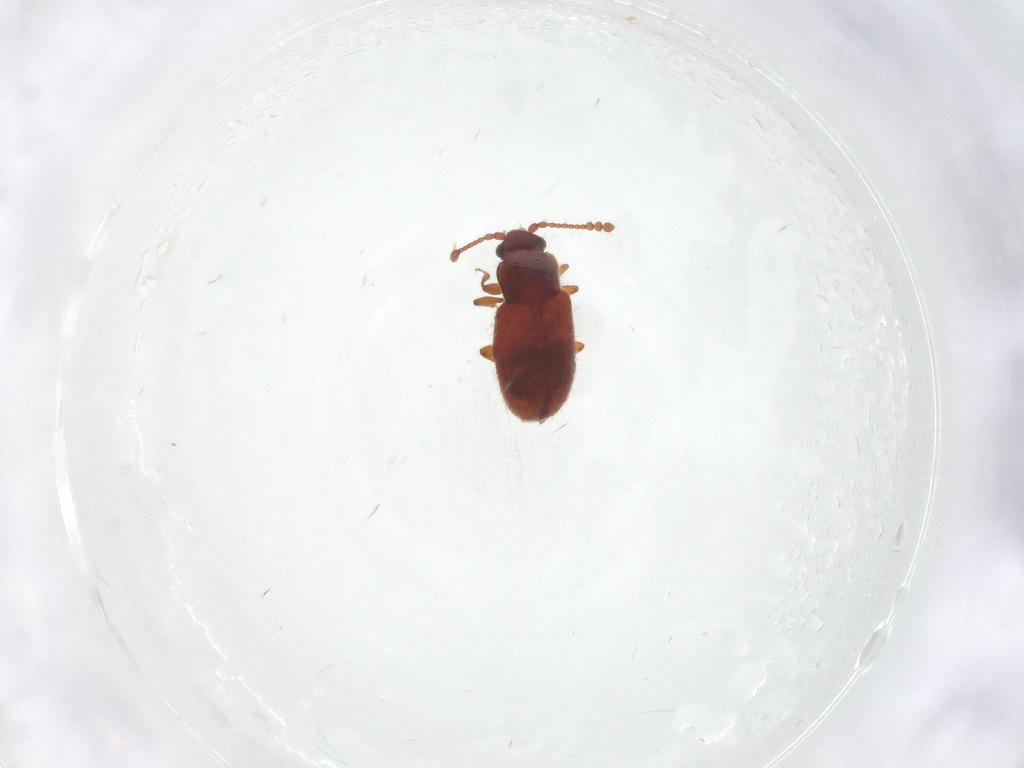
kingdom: Animalia
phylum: Arthropoda
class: Insecta
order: Coleoptera
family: Cryptophagidae
